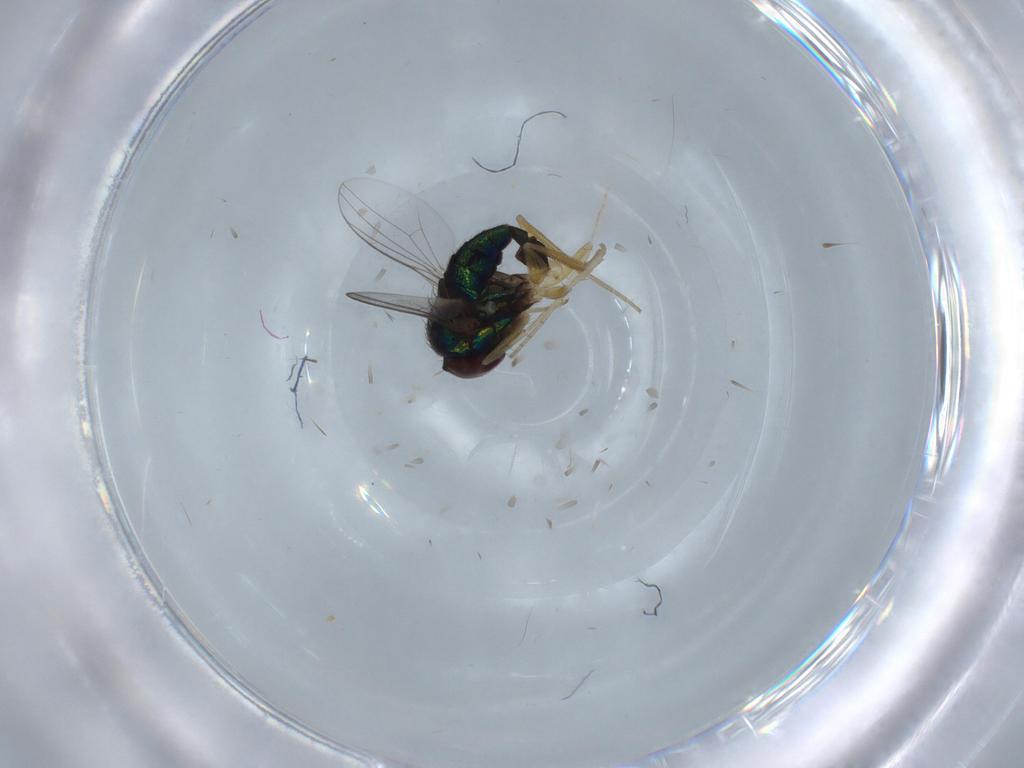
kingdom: Animalia
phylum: Arthropoda
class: Insecta
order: Diptera
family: Dolichopodidae
